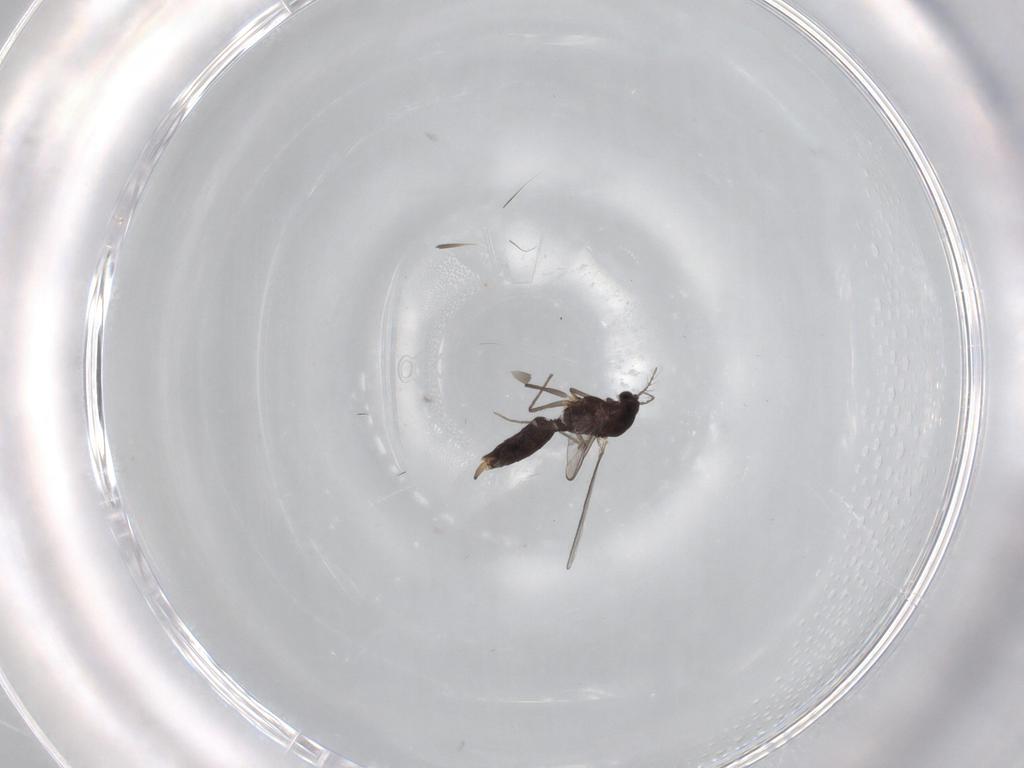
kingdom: Animalia
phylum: Arthropoda
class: Insecta
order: Diptera
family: Chironomidae
